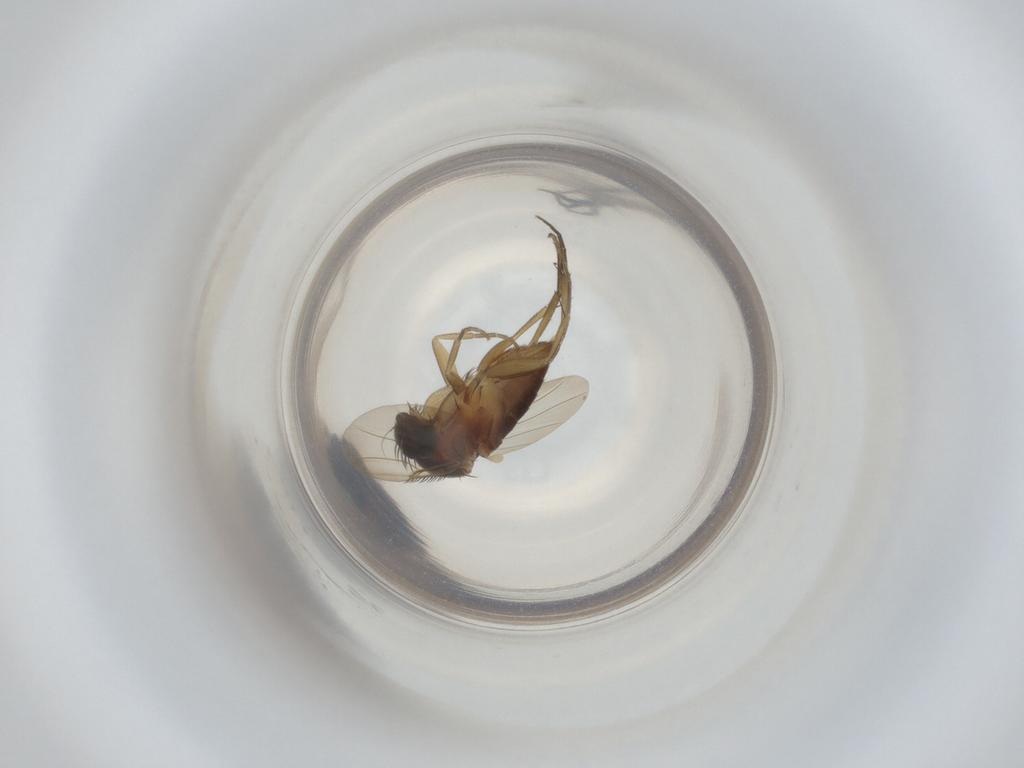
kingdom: Animalia
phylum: Arthropoda
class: Insecta
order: Diptera
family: Phoridae
